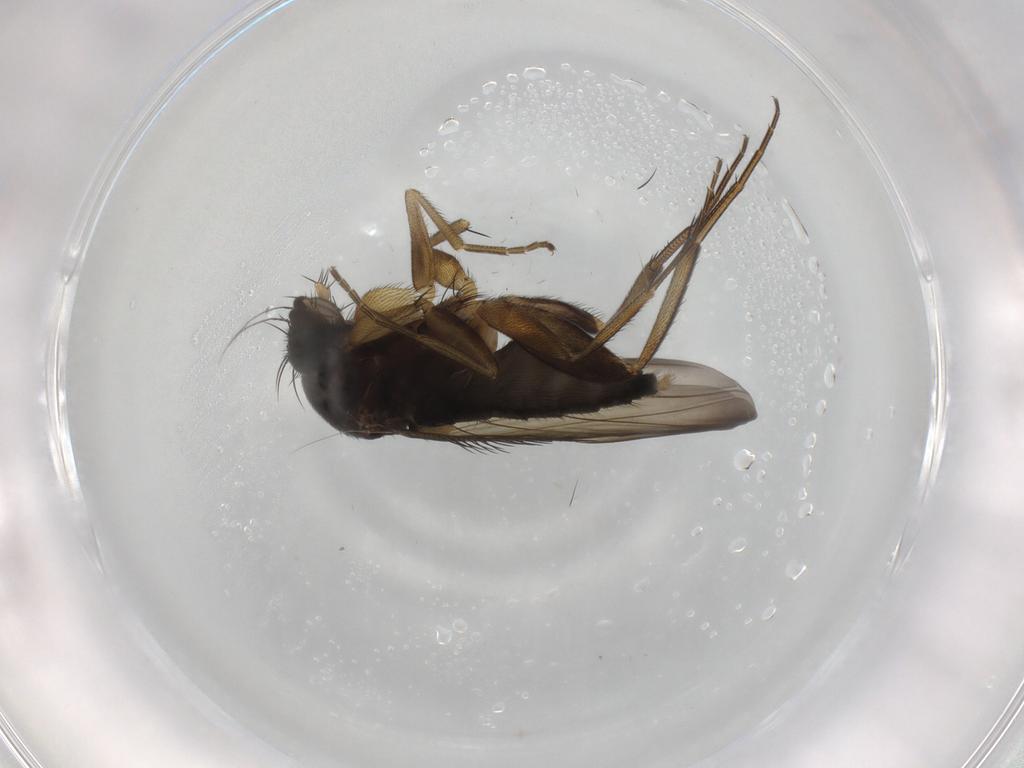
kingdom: Animalia
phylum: Arthropoda
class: Insecta
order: Diptera
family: Phoridae
